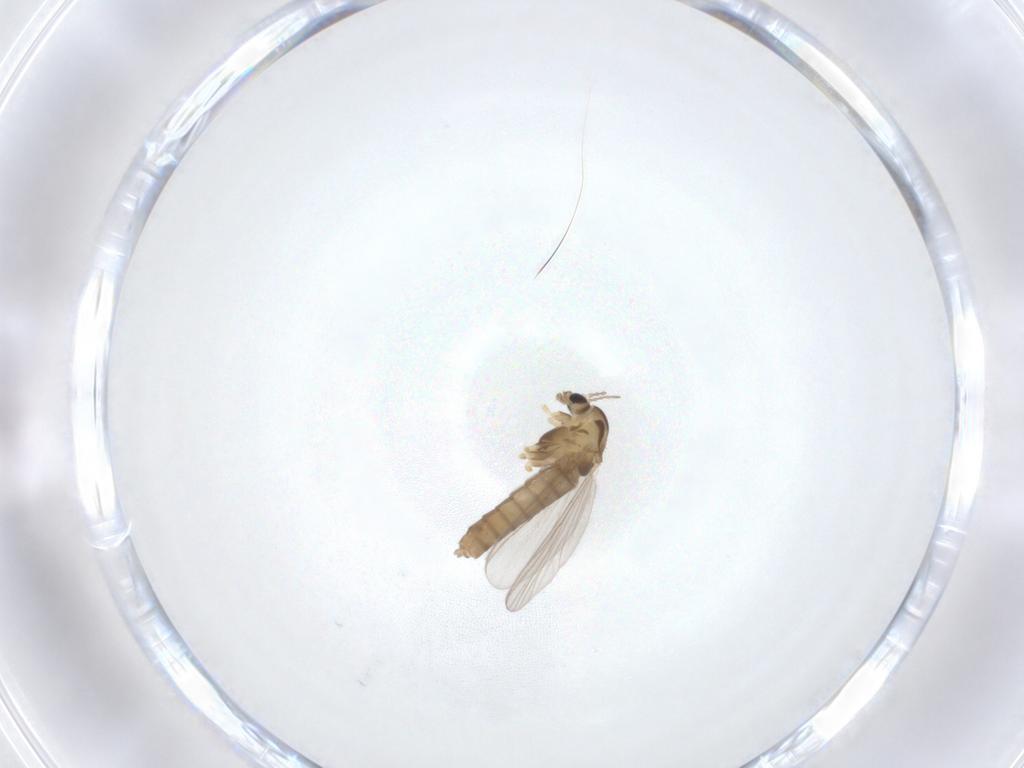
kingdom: Animalia
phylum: Arthropoda
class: Insecta
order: Diptera
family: Chironomidae
